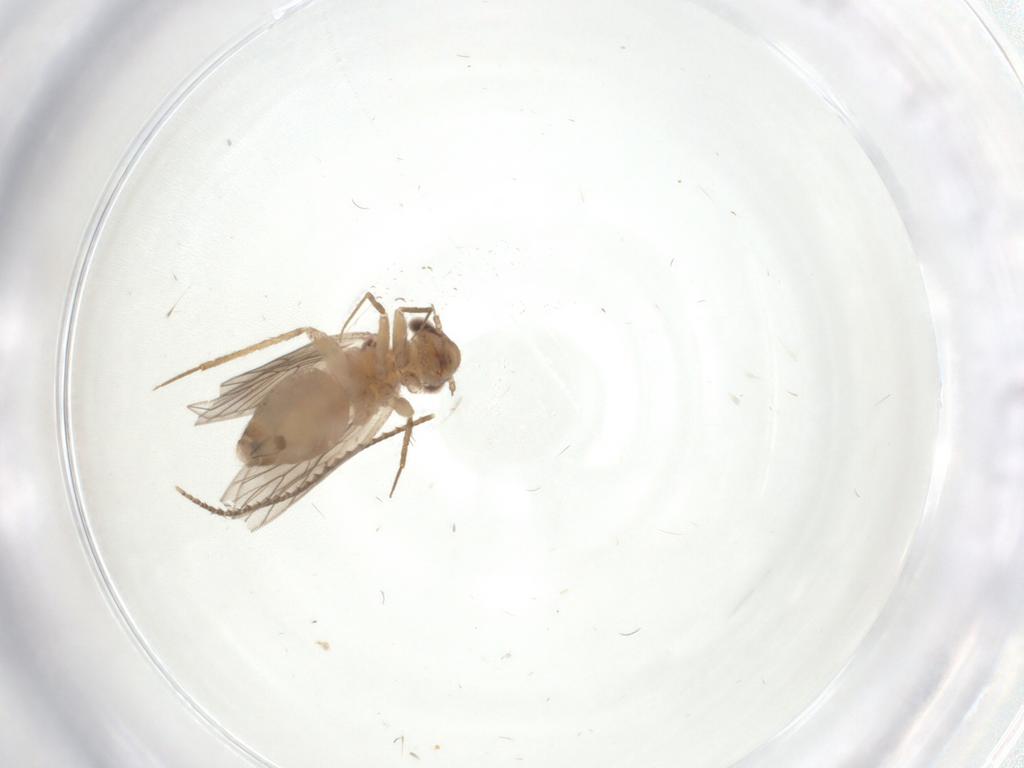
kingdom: Animalia
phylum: Arthropoda
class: Insecta
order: Psocodea
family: Lepidopsocidae
